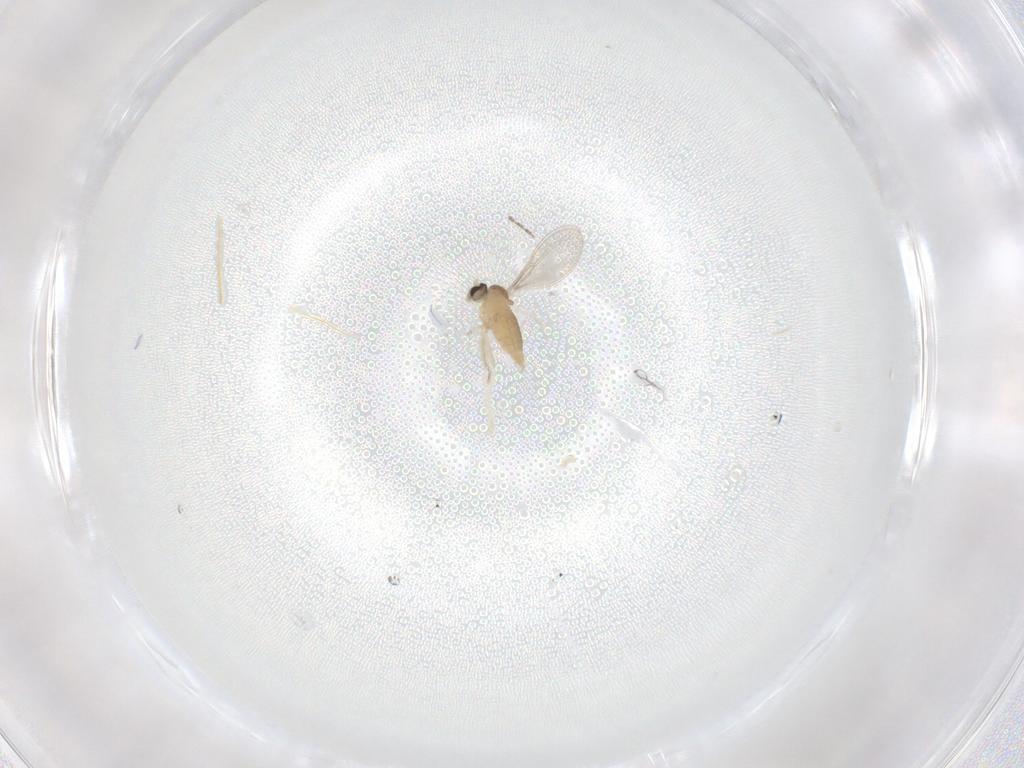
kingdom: Animalia
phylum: Arthropoda
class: Insecta
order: Diptera
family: Cecidomyiidae
